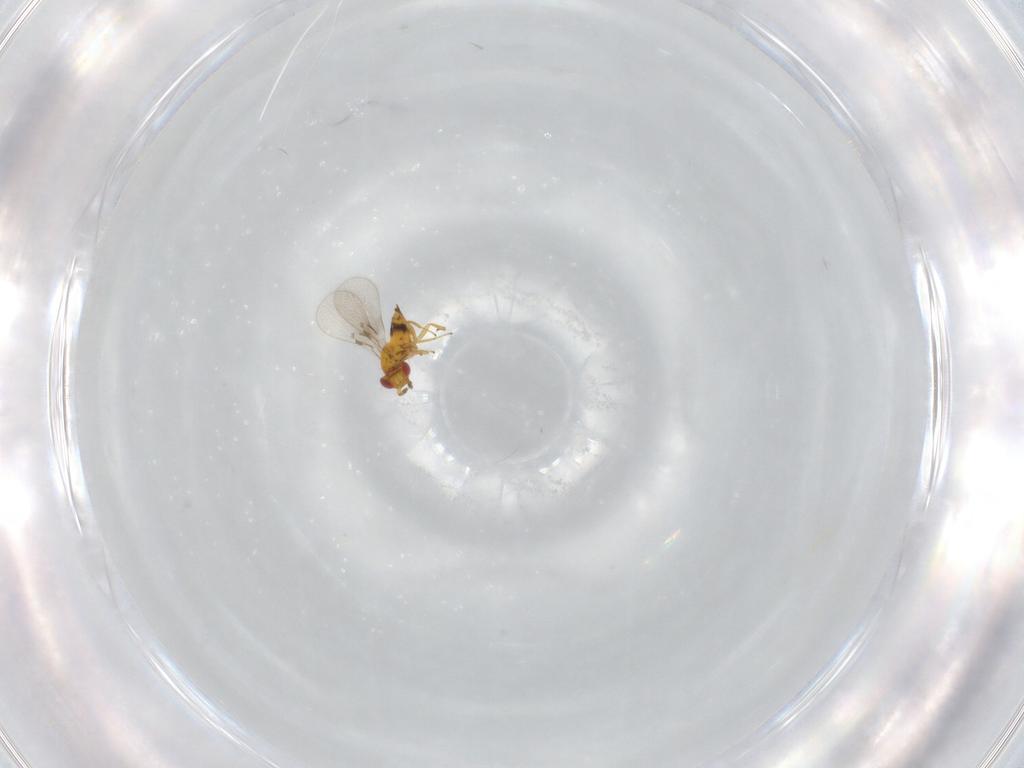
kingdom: Animalia
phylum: Arthropoda
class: Insecta
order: Hymenoptera
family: Trichogrammatidae
